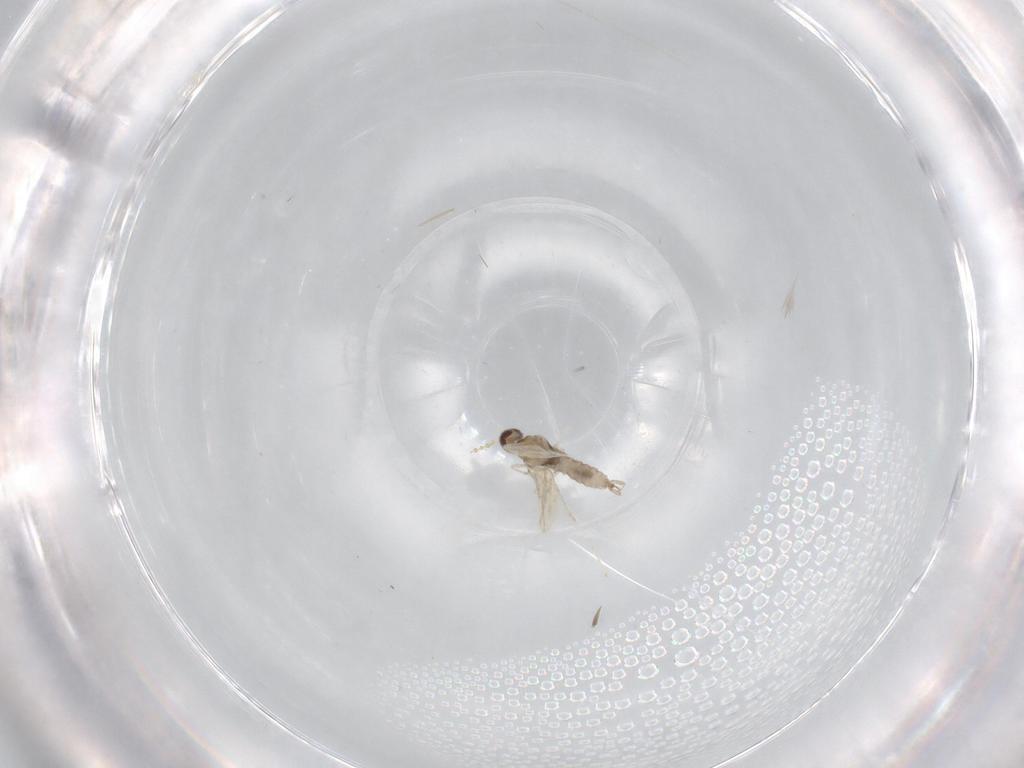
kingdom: Animalia
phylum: Arthropoda
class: Insecta
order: Diptera
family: Cecidomyiidae
